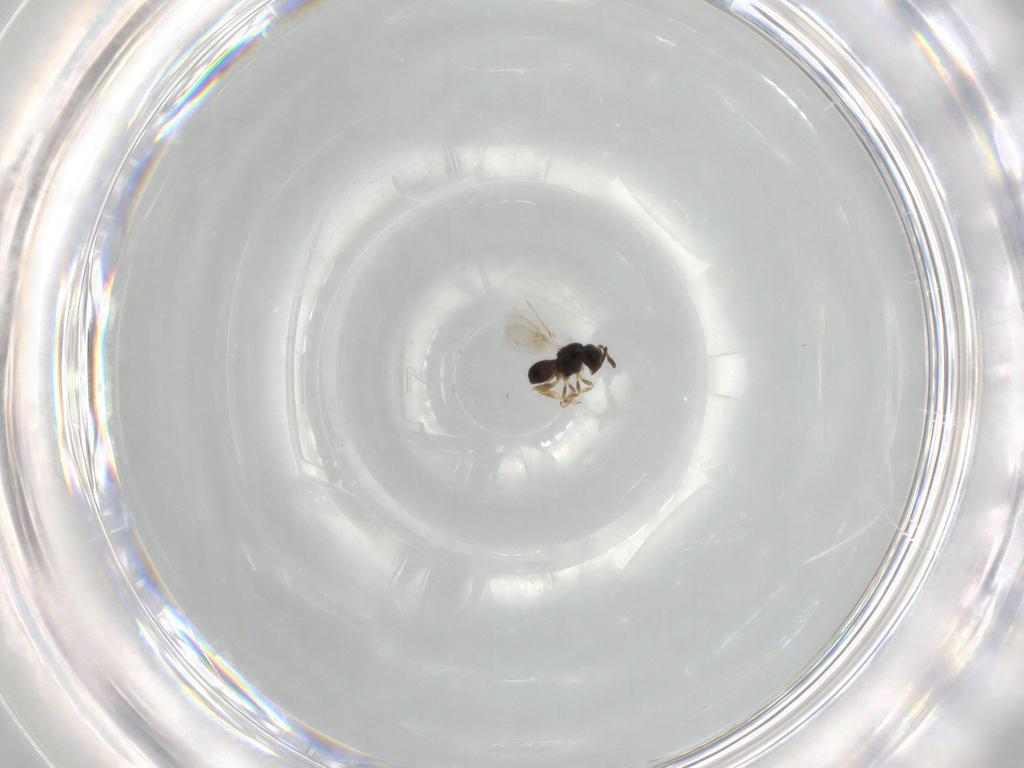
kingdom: Animalia
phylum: Arthropoda
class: Insecta
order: Hymenoptera
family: Scelionidae
